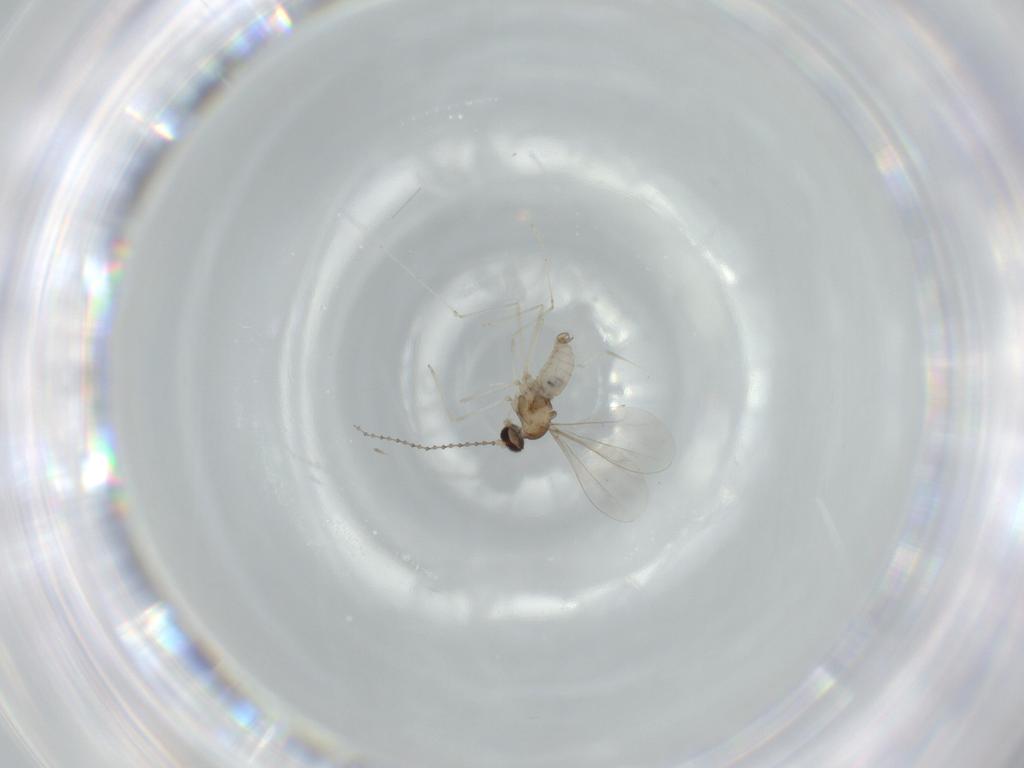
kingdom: Animalia
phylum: Arthropoda
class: Insecta
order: Diptera
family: Cecidomyiidae
